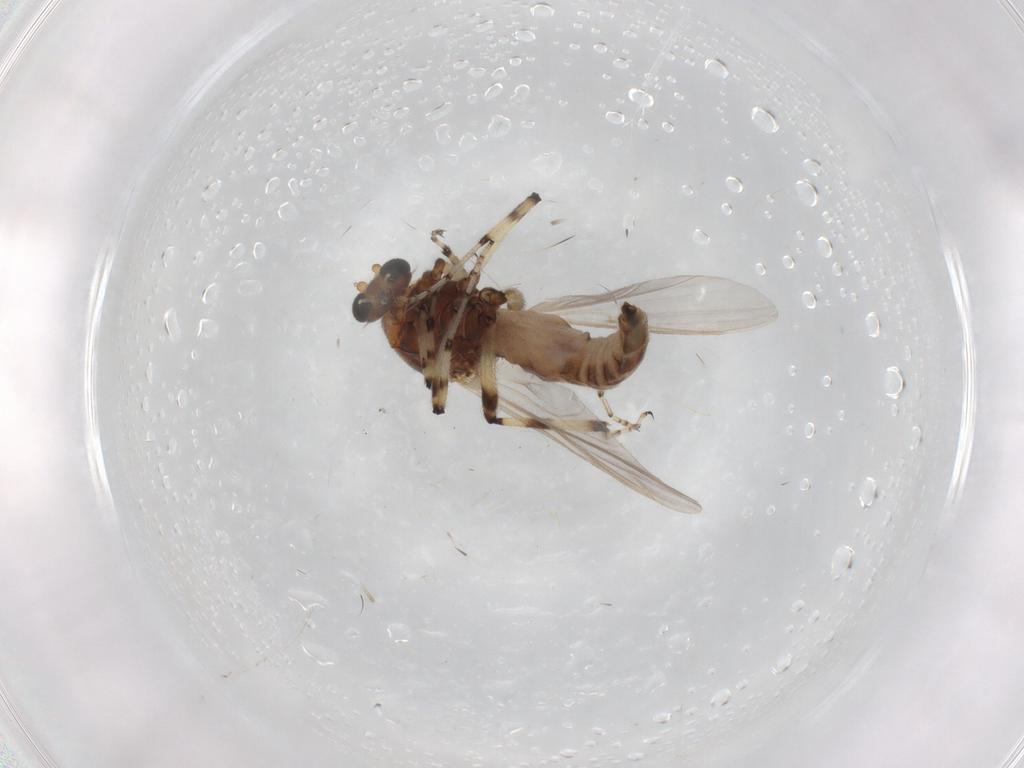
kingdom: Animalia
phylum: Arthropoda
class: Insecta
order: Diptera
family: Ceratopogonidae
